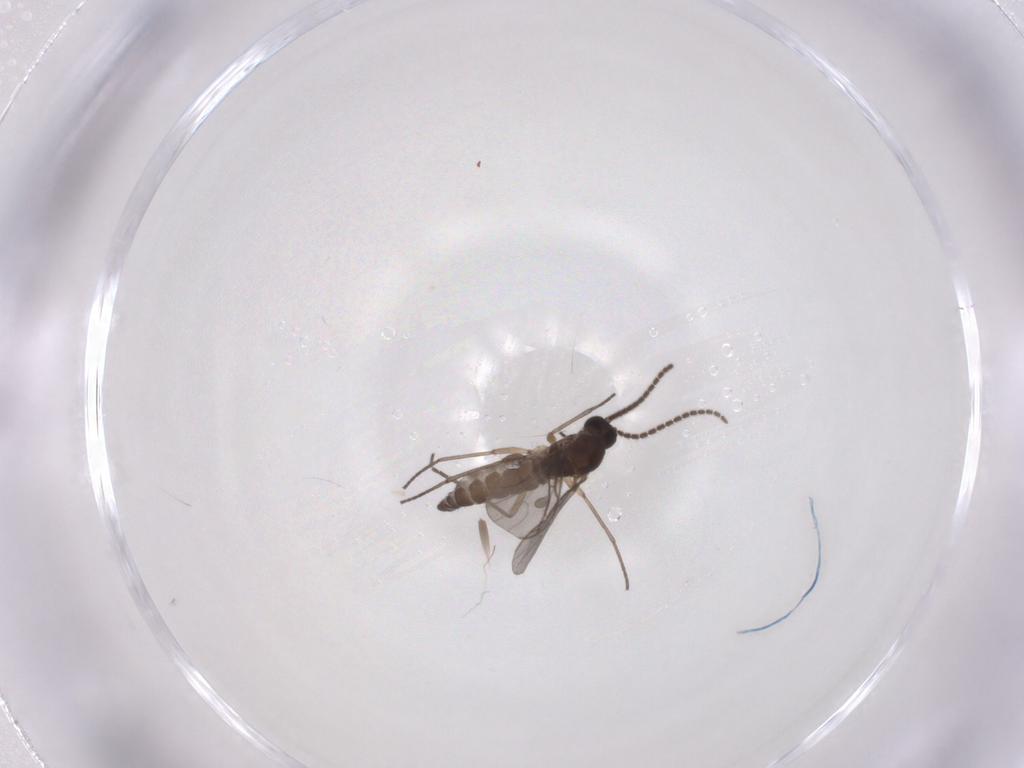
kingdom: Animalia
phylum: Arthropoda
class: Insecta
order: Diptera
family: Sciaridae
